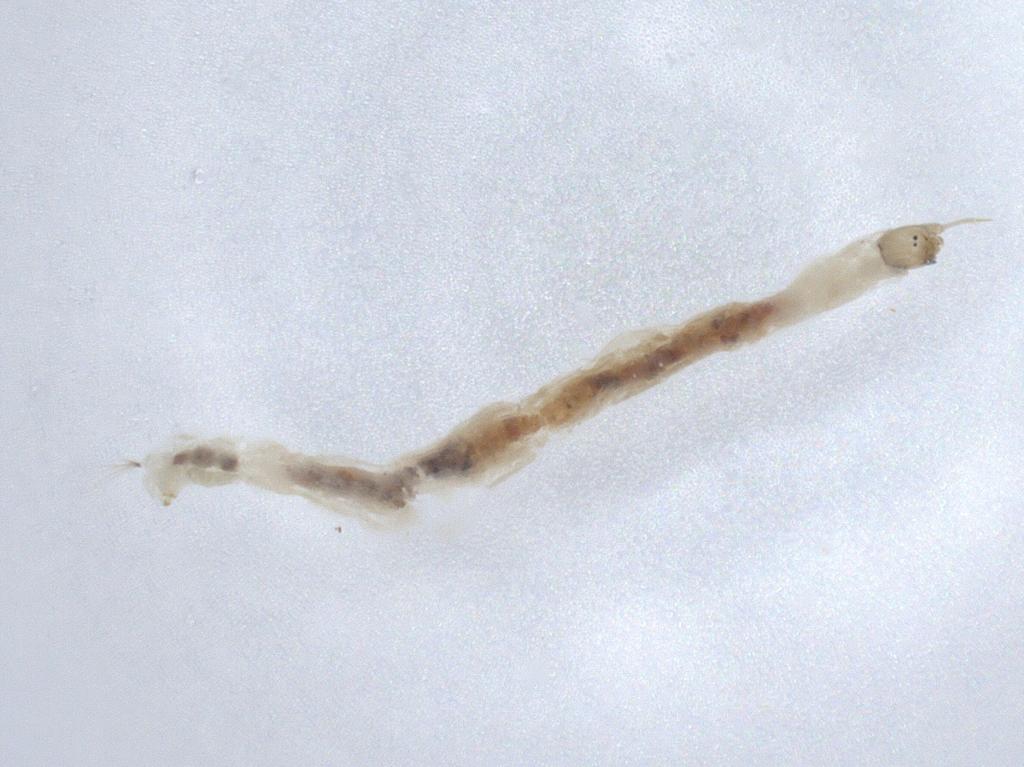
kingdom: Animalia
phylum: Arthropoda
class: Insecta
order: Diptera
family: Chironomidae
